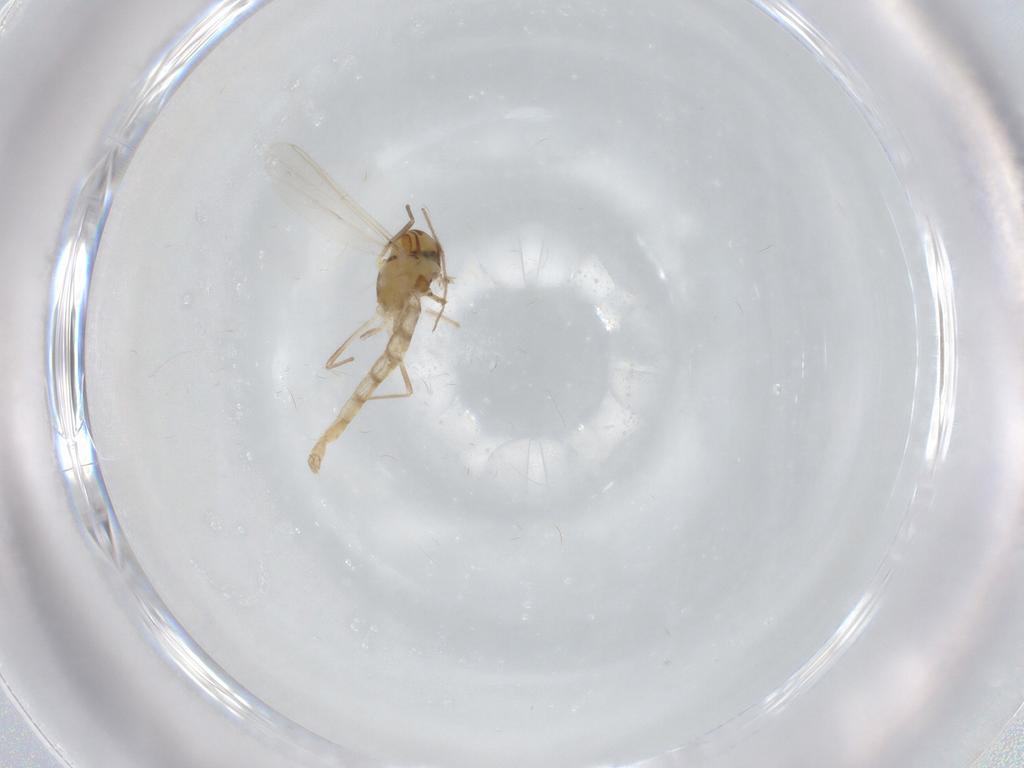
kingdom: Animalia
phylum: Arthropoda
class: Insecta
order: Diptera
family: Chironomidae
